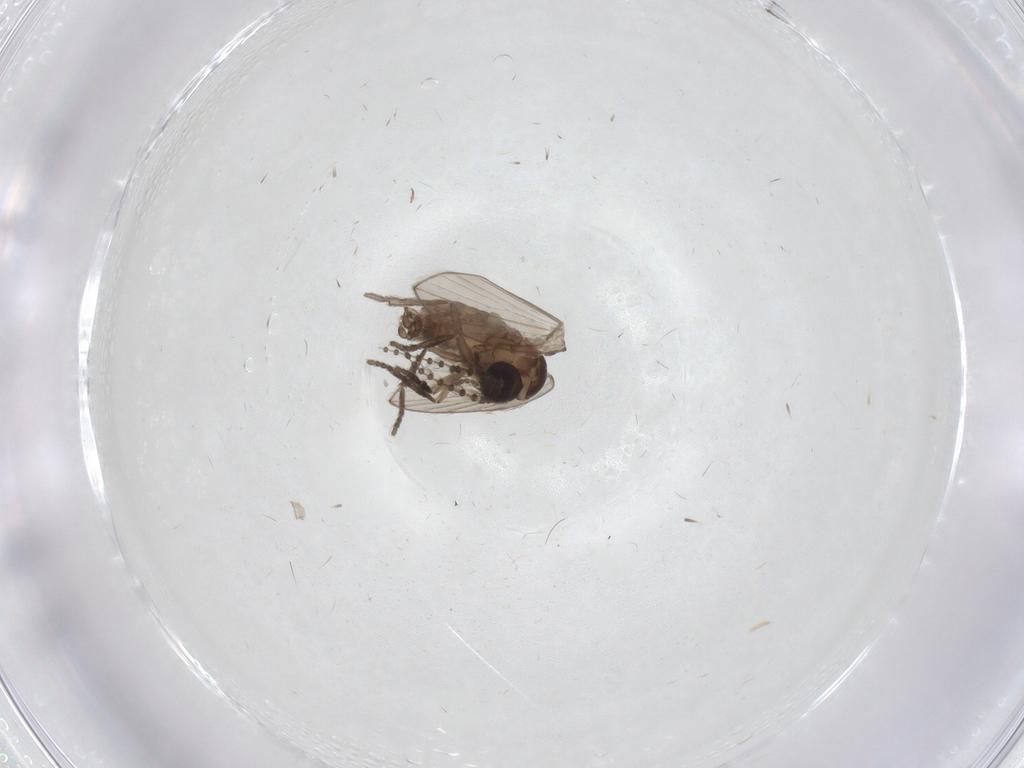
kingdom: Animalia
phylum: Arthropoda
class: Insecta
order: Diptera
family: Psychodidae
